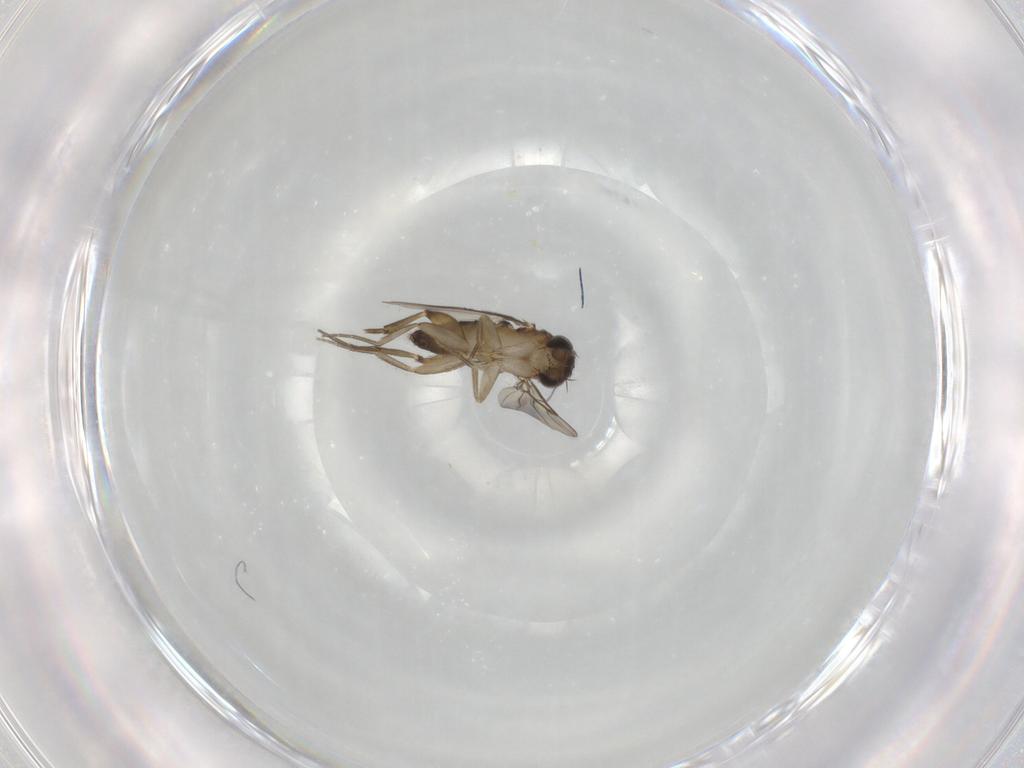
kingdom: Animalia
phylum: Arthropoda
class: Insecta
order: Diptera
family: Phoridae
